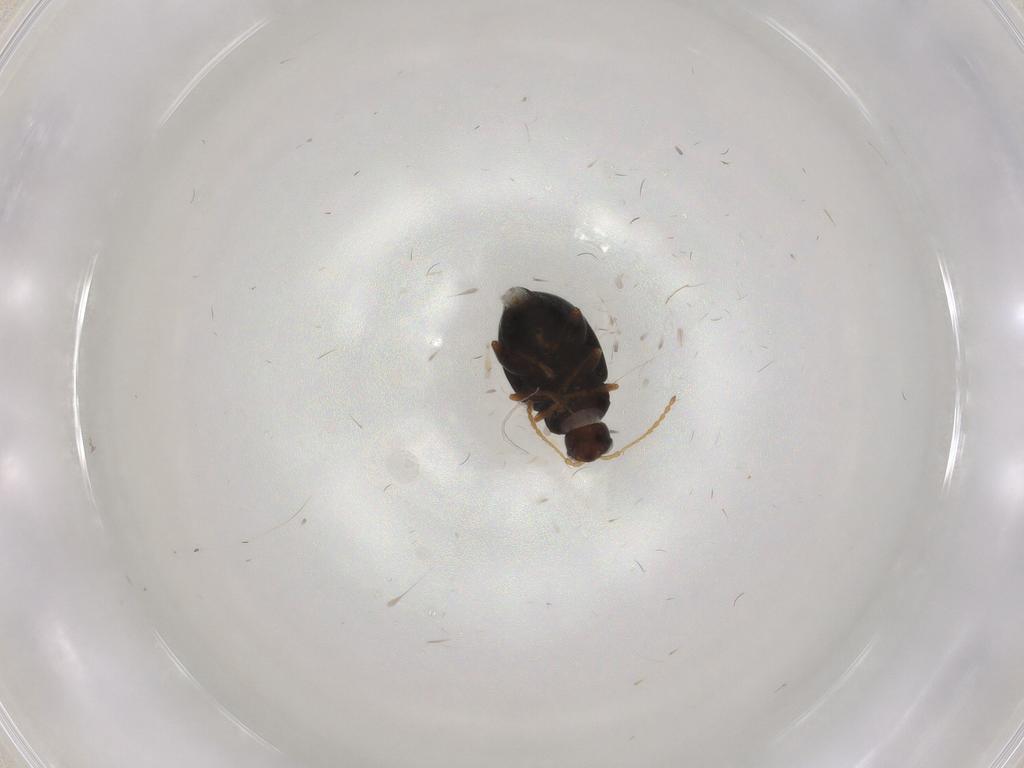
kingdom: Animalia
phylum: Arthropoda
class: Insecta
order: Coleoptera
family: Chrysomelidae
